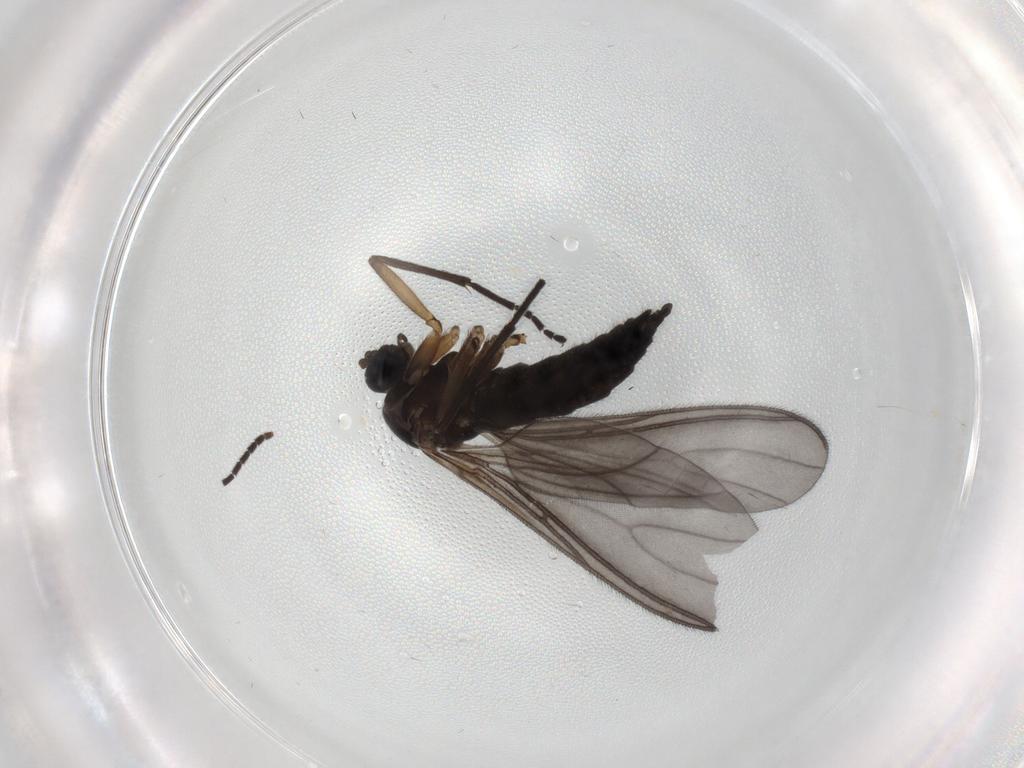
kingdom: Animalia
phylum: Arthropoda
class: Insecta
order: Diptera
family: Sciaridae
